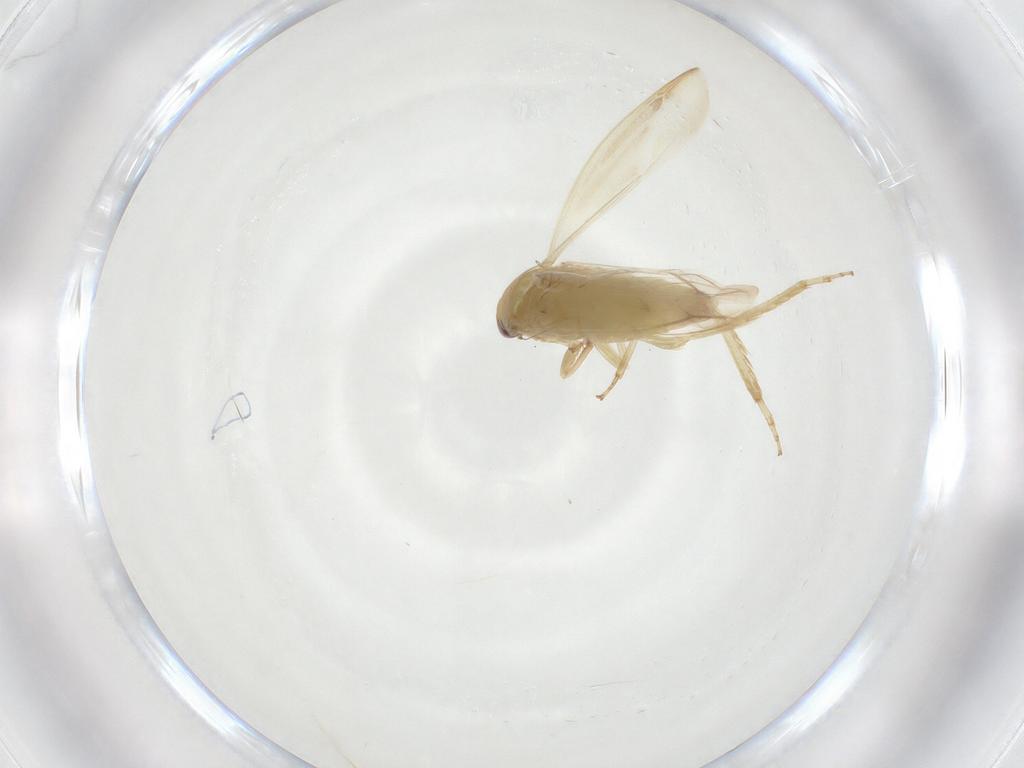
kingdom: Animalia
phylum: Arthropoda
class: Insecta
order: Hemiptera
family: Cicadellidae
